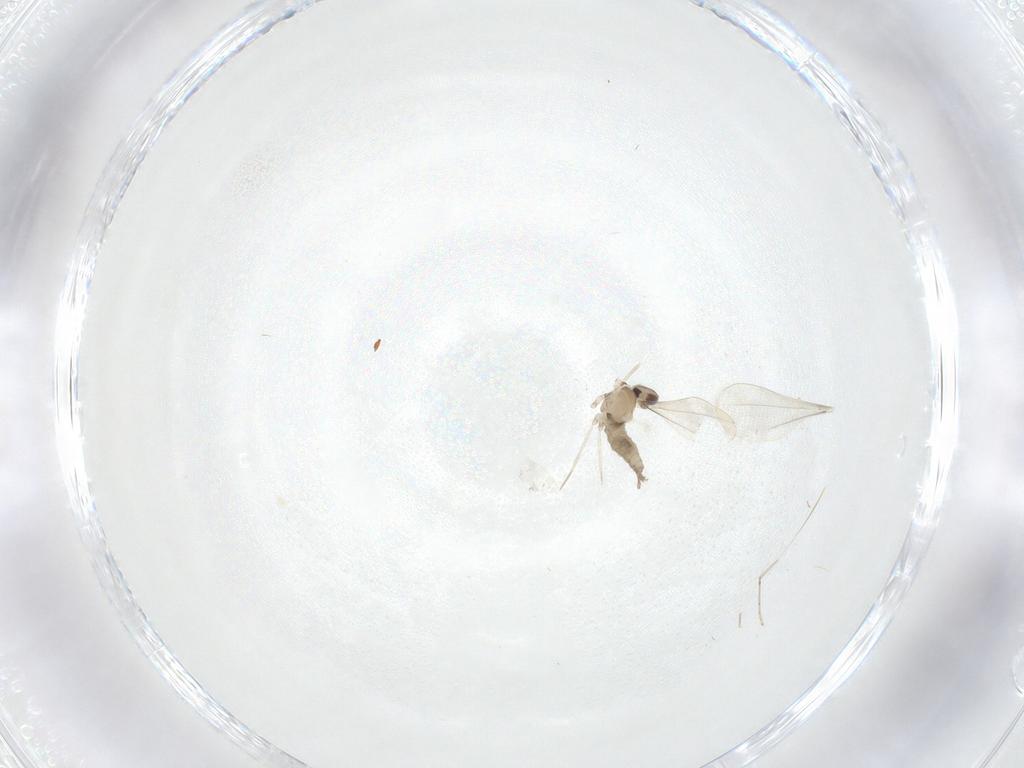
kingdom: Animalia
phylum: Arthropoda
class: Insecta
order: Diptera
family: Cecidomyiidae
